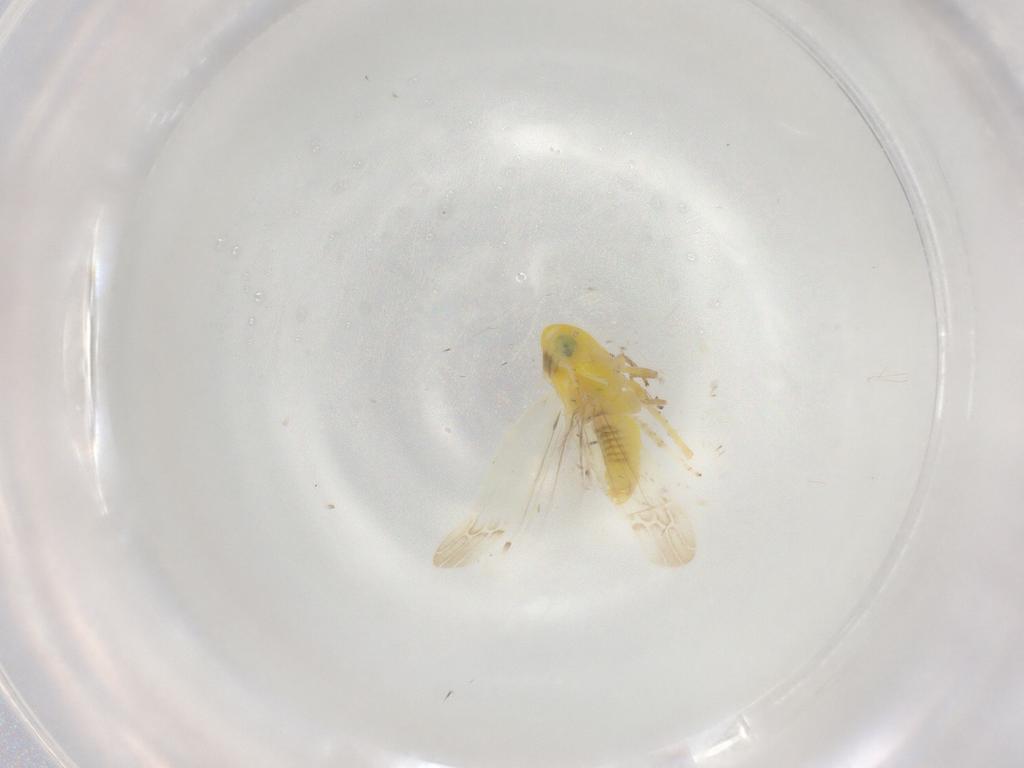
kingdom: Animalia
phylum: Arthropoda
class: Insecta
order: Hemiptera
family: Cicadellidae
